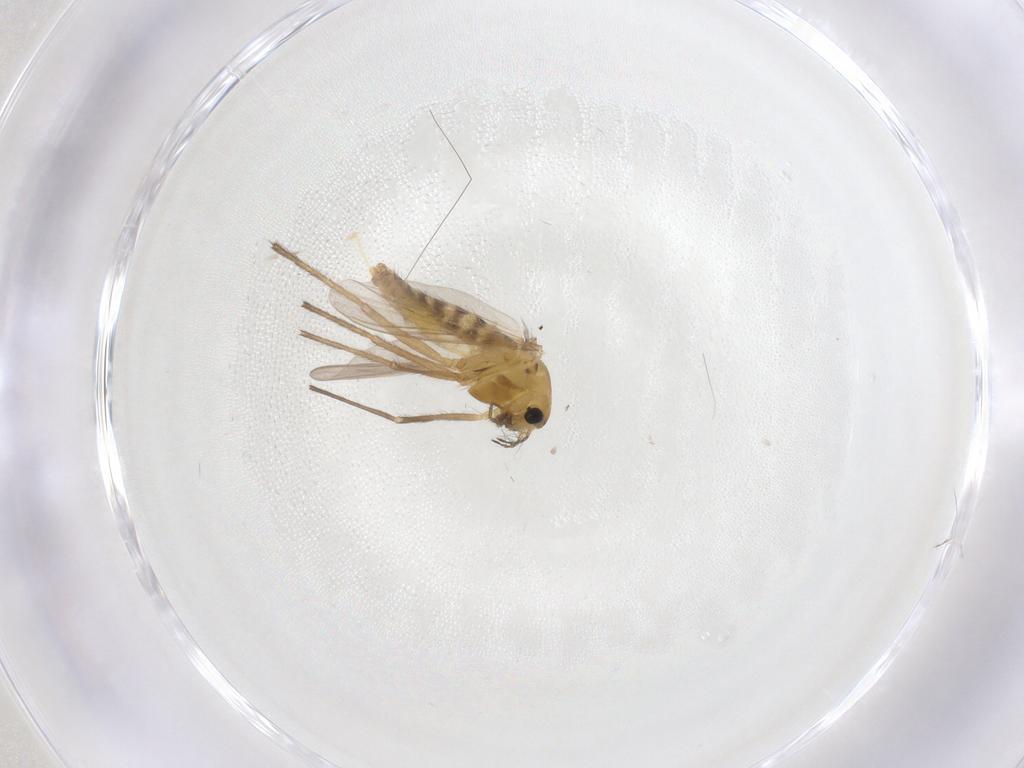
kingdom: Animalia
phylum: Arthropoda
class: Insecta
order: Diptera
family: Chironomidae
